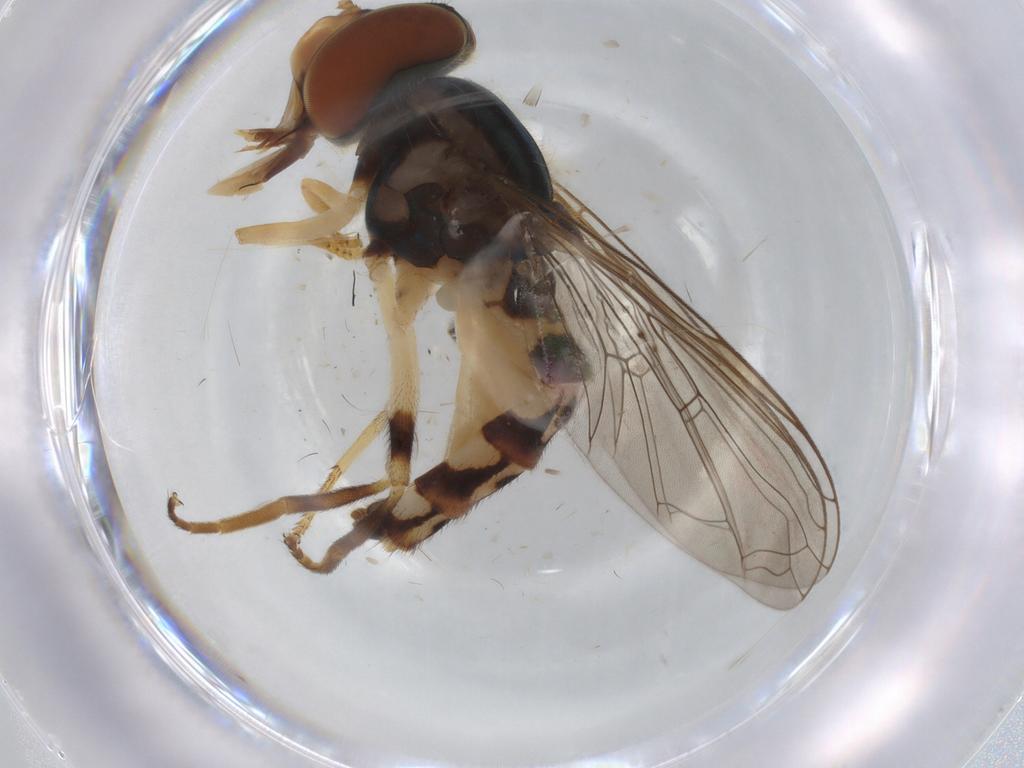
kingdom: Animalia
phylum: Arthropoda
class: Insecta
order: Diptera
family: Syrphidae
